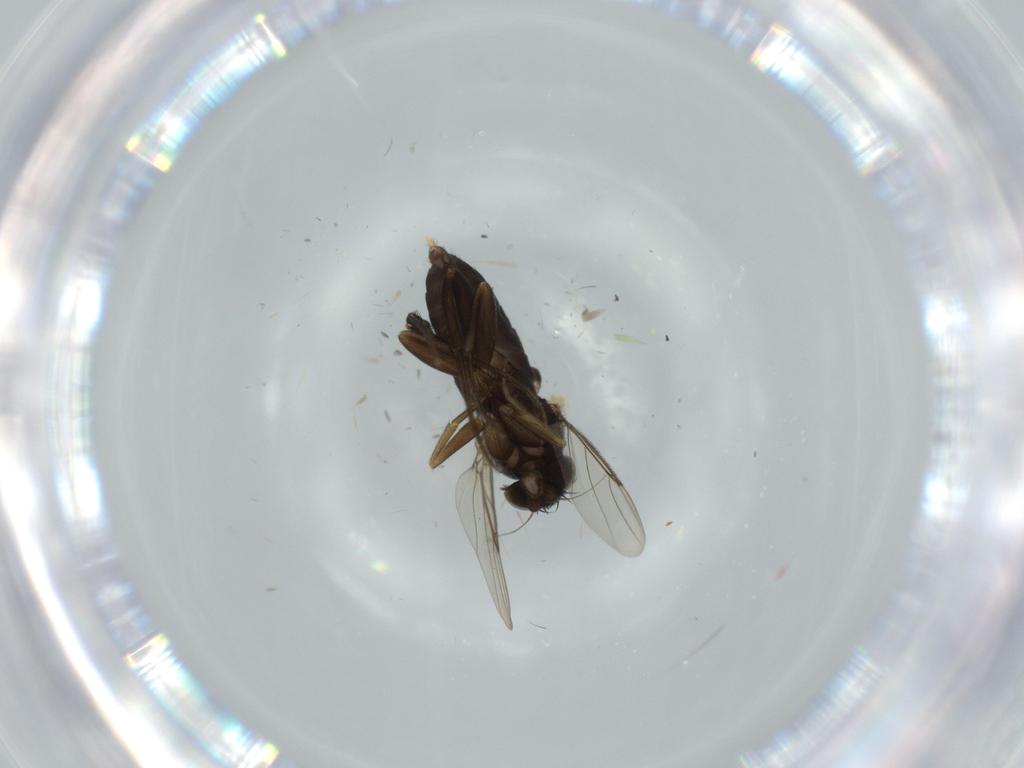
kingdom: Animalia
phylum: Arthropoda
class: Insecta
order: Diptera
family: Phoridae
